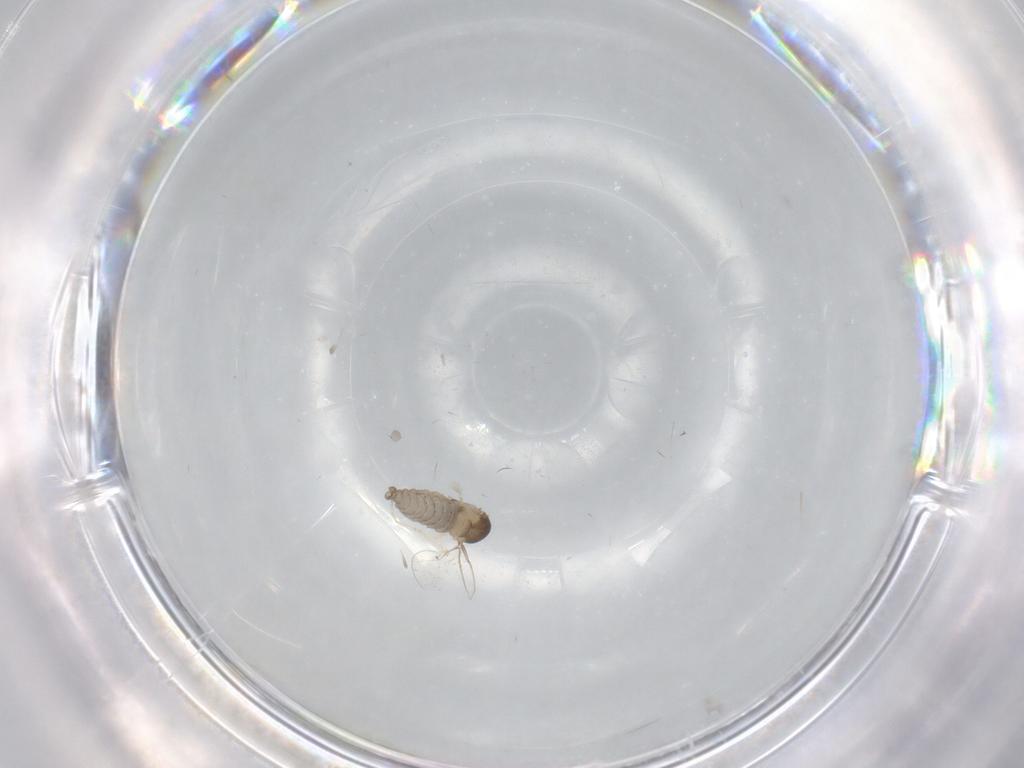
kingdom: Animalia
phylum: Arthropoda
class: Insecta
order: Diptera
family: Cecidomyiidae
